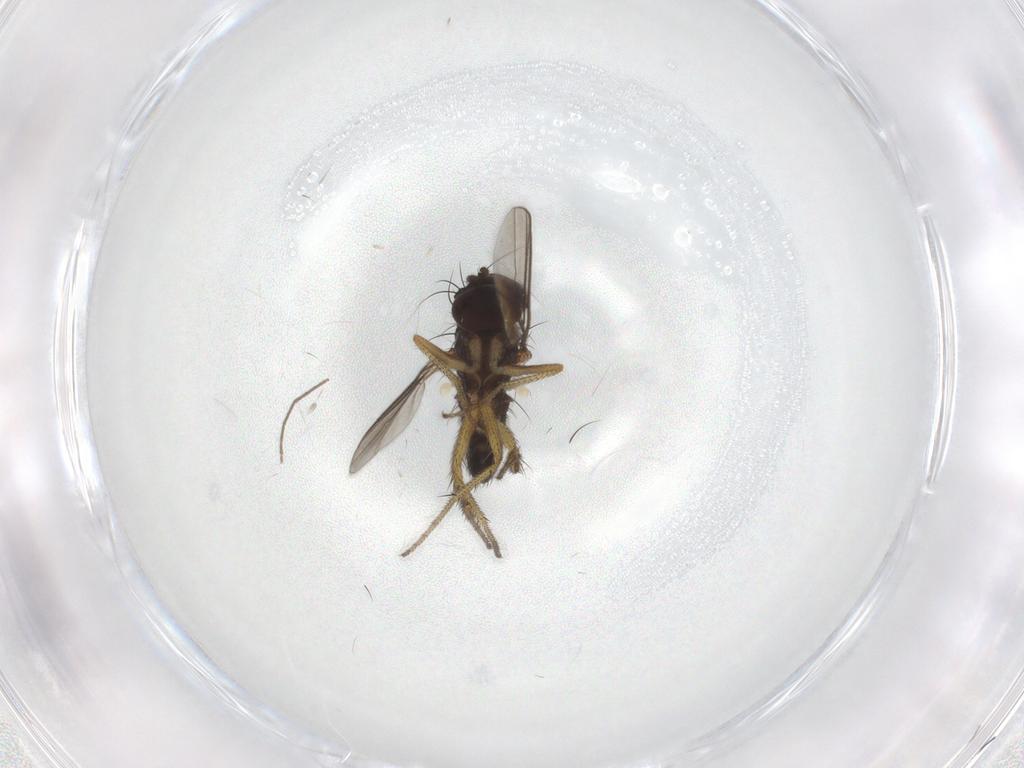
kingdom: Animalia
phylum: Arthropoda
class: Insecta
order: Diptera
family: Dolichopodidae
